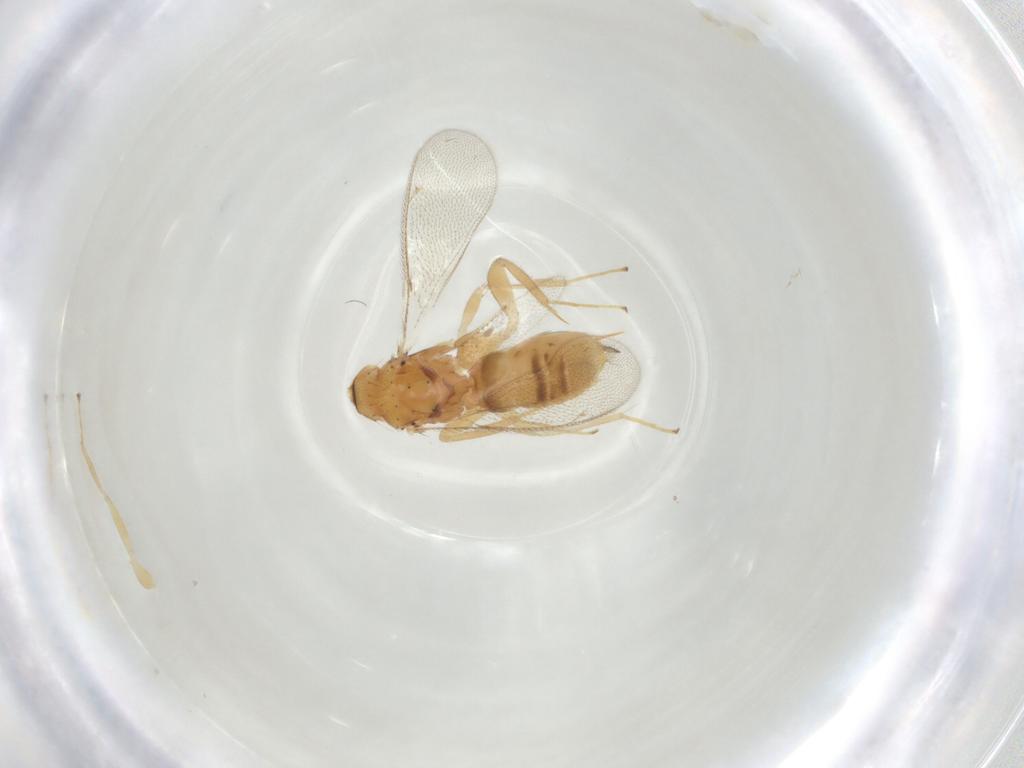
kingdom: Animalia
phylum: Arthropoda
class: Insecta
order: Hymenoptera
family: Eulophidae
